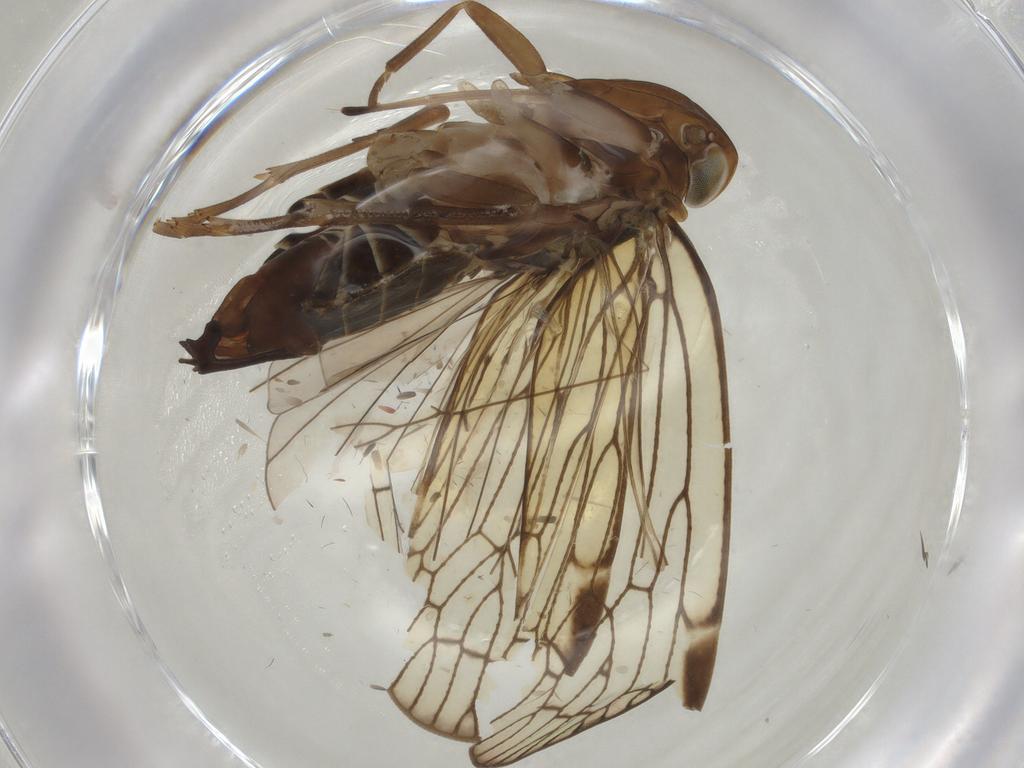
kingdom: Animalia
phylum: Arthropoda
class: Insecta
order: Hemiptera
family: Cixiidae
